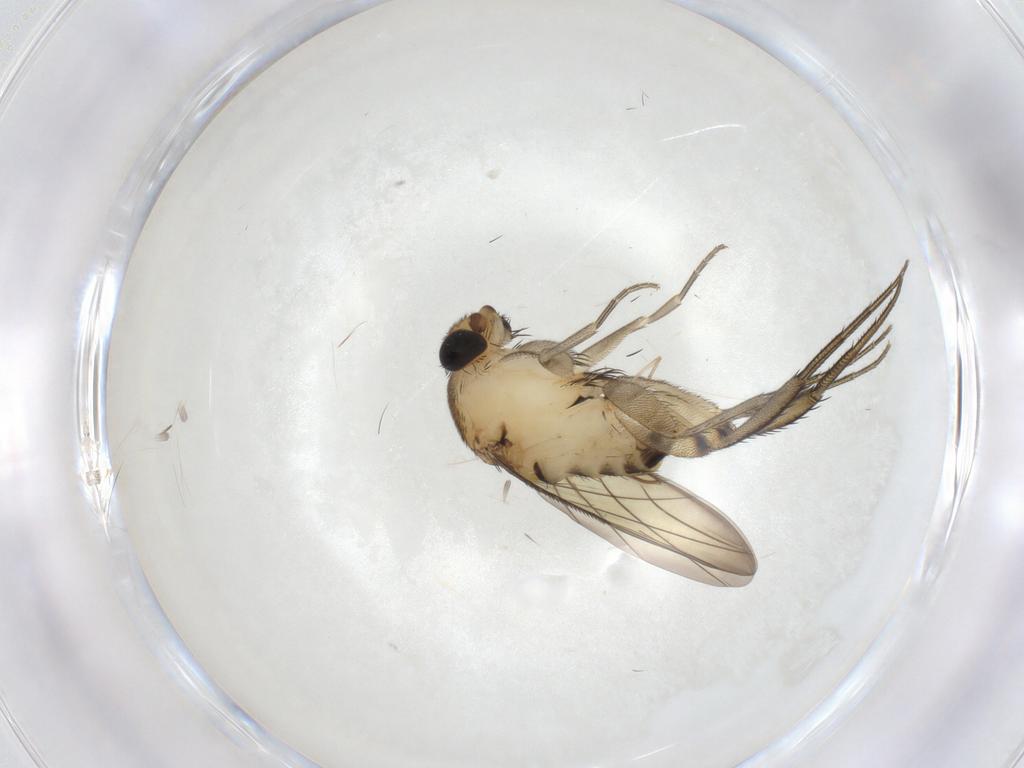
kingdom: Animalia
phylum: Arthropoda
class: Insecta
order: Diptera
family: Phoridae
